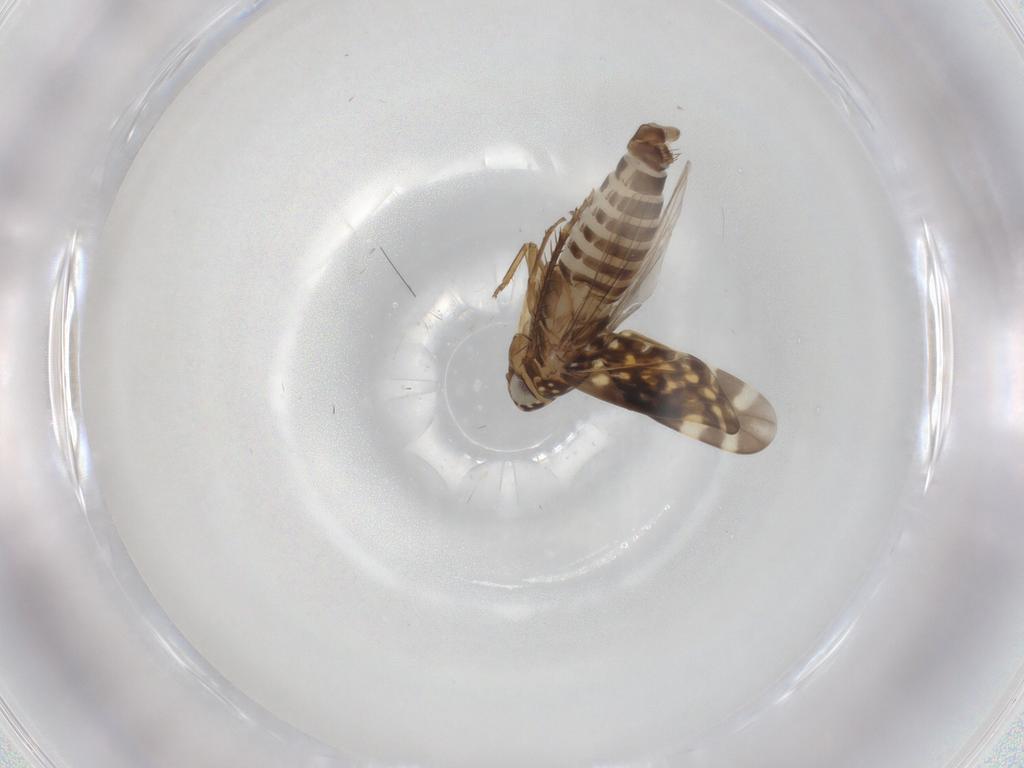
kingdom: Animalia
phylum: Arthropoda
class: Insecta
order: Hemiptera
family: Cicadellidae
